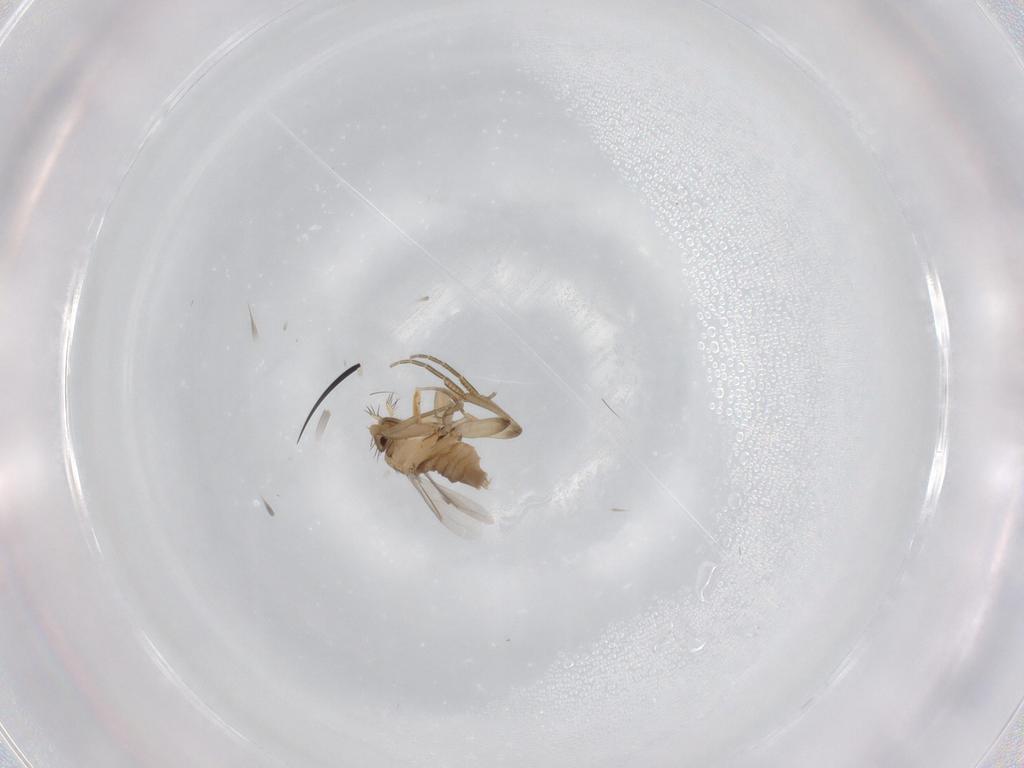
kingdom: Animalia
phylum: Arthropoda
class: Insecta
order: Diptera
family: Phoridae
